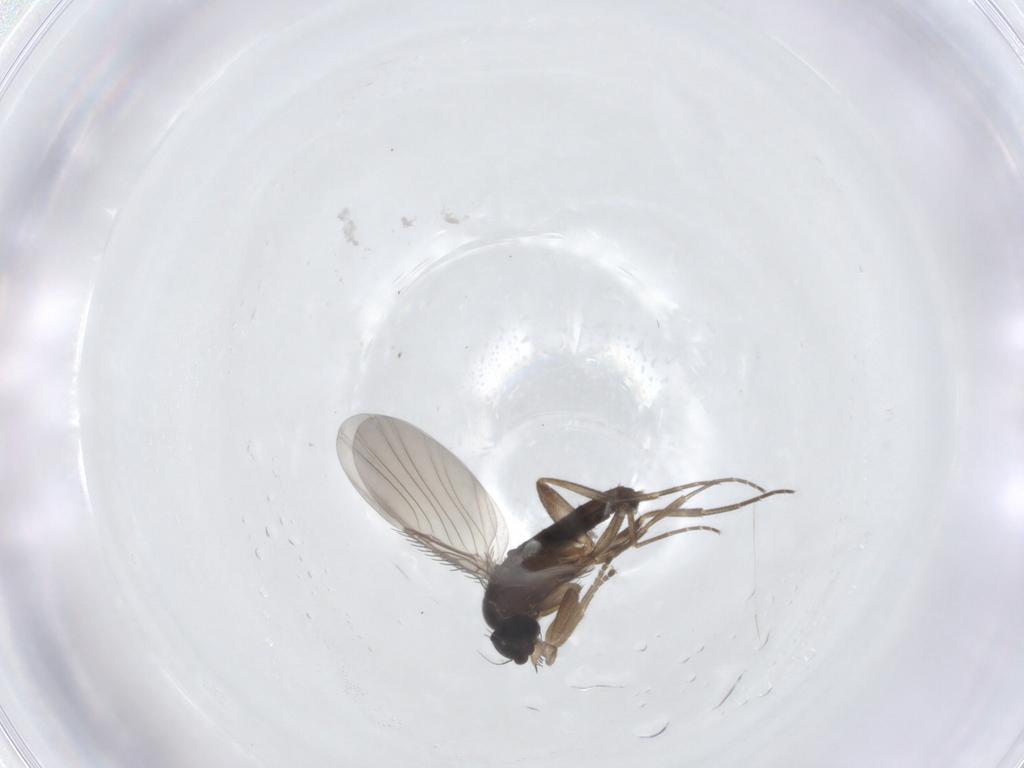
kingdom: Animalia
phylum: Arthropoda
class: Insecta
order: Diptera
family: Phoridae
